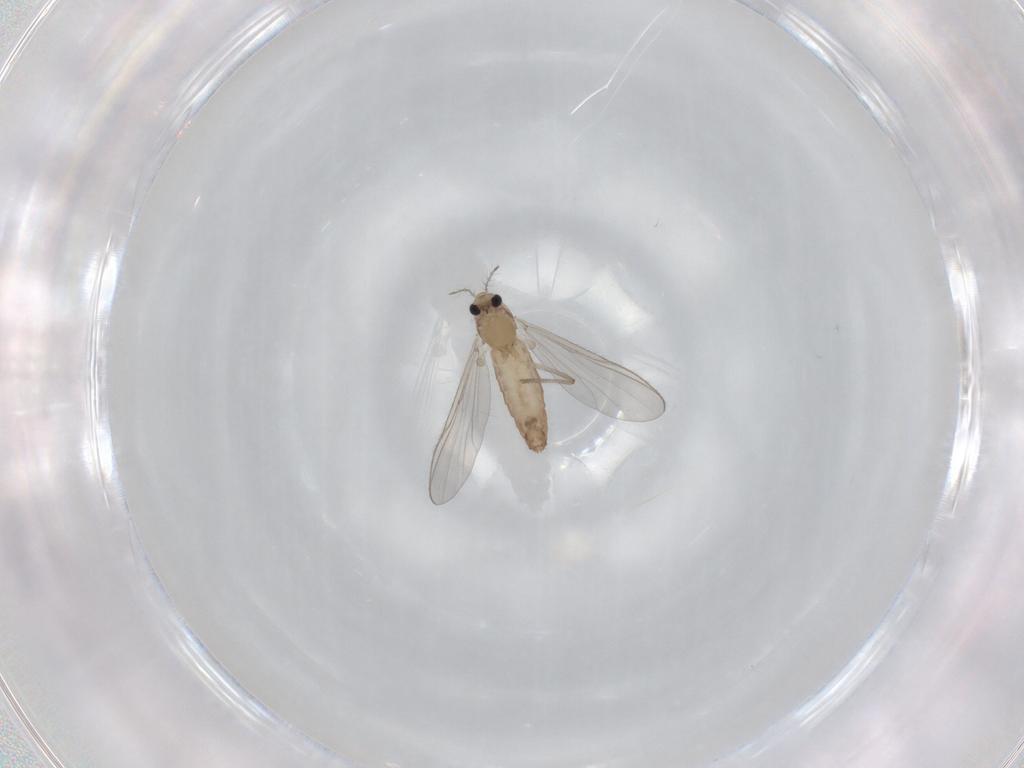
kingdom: Animalia
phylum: Arthropoda
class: Insecta
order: Diptera
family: Chironomidae
